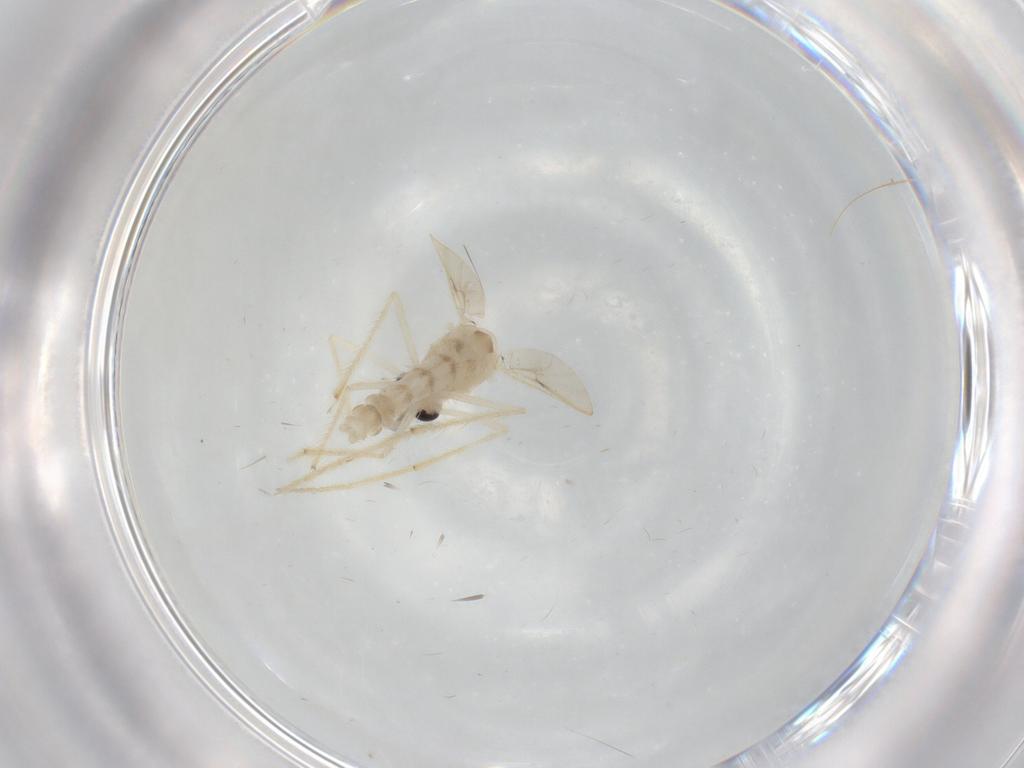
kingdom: Animalia
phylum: Arthropoda
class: Insecta
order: Diptera
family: Chironomidae
